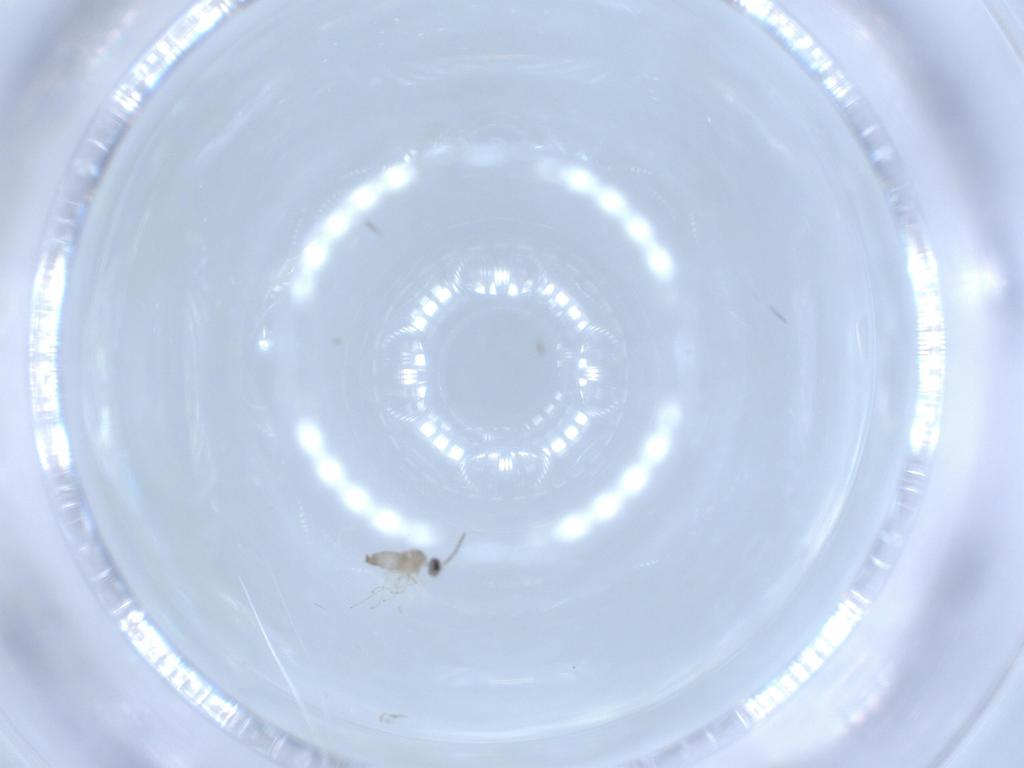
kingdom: Animalia
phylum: Arthropoda
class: Insecta
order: Diptera
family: Cecidomyiidae
